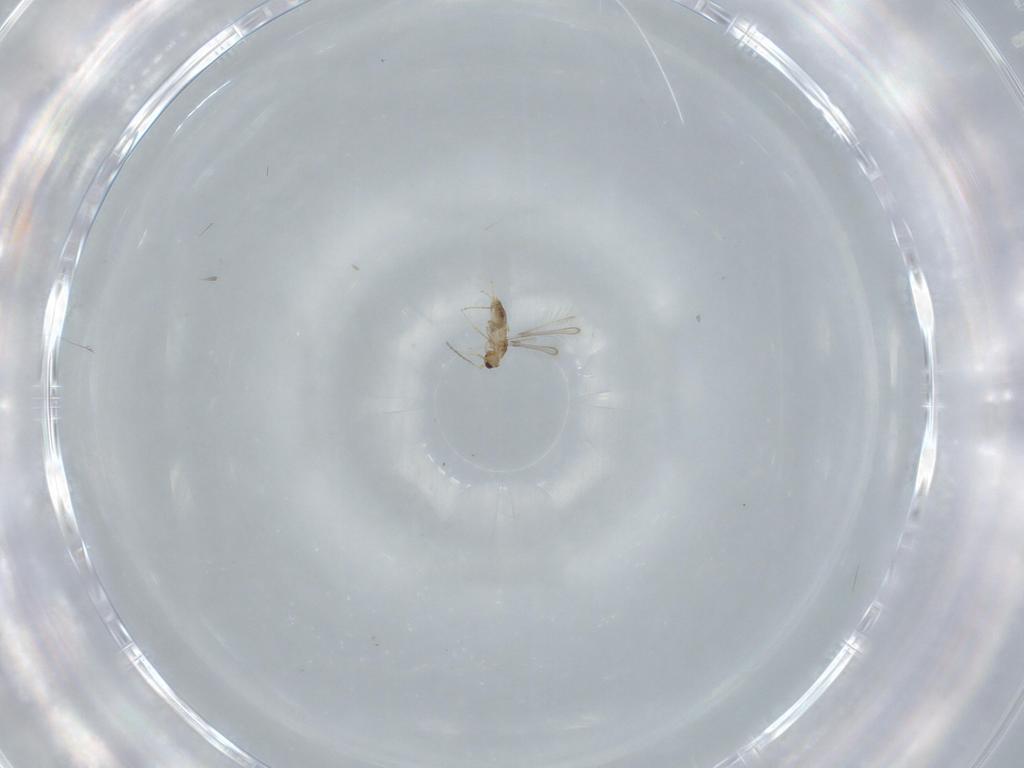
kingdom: Animalia
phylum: Arthropoda
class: Insecta
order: Hymenoptera
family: Mymaridae
